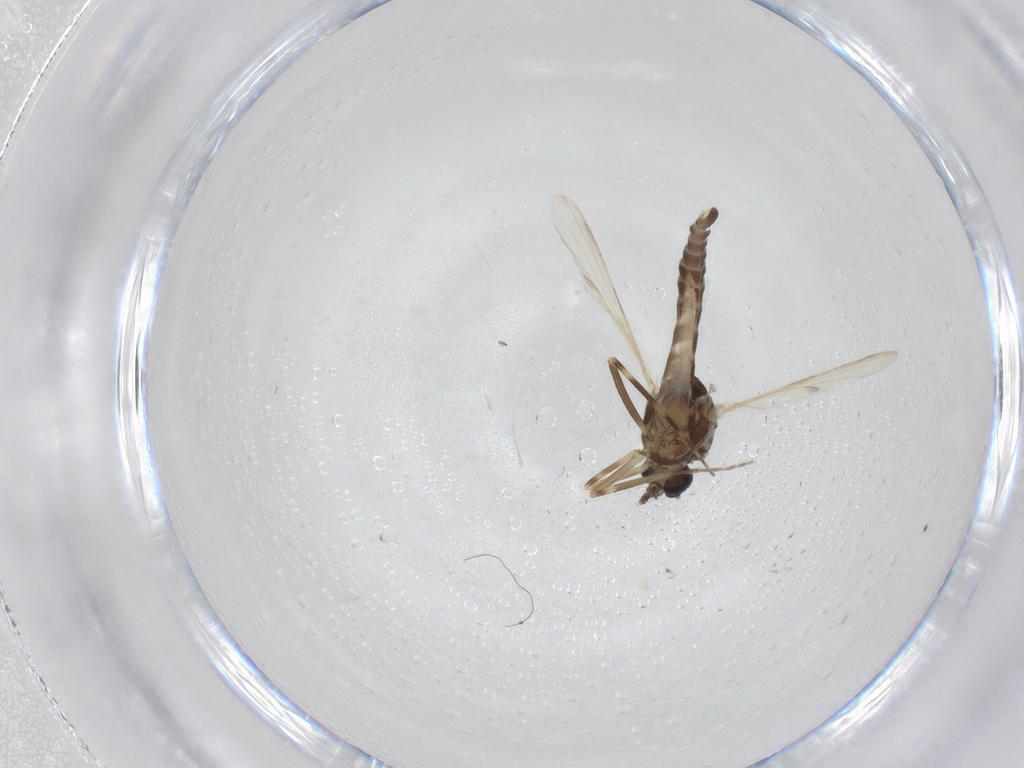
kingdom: Animalia
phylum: Arthropoda
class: Insecta
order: Diptera
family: Ceratopogonidae
